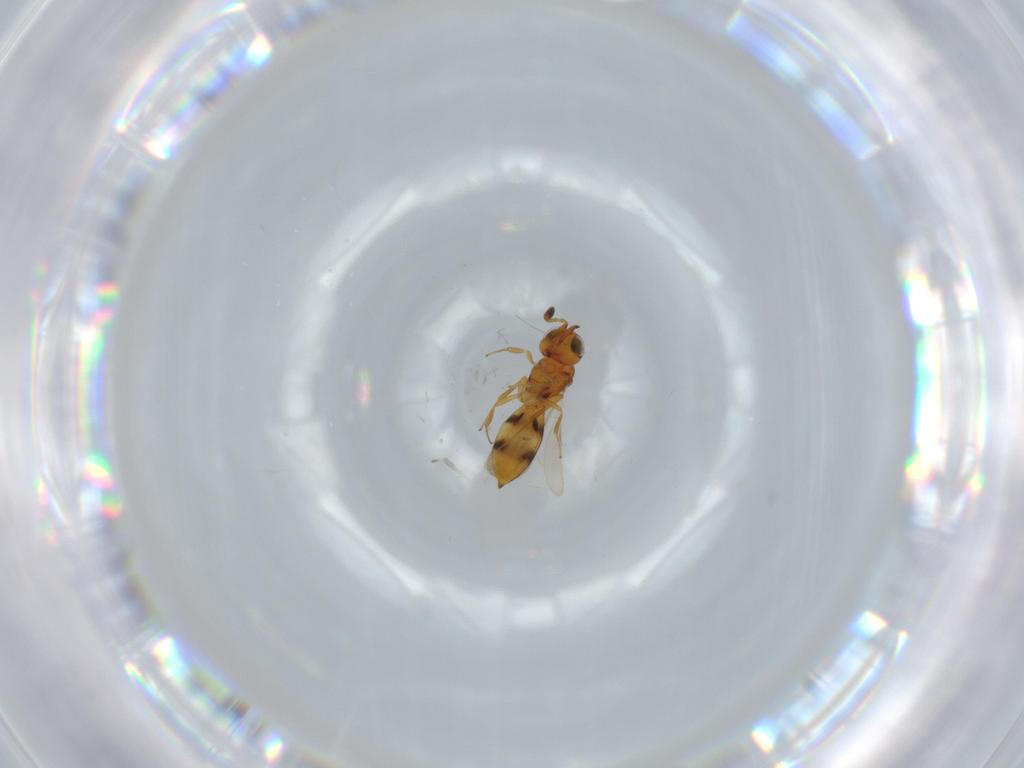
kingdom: Animalia
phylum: Arthropoda
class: Insecta
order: Hymenoptera
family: Scelionidae
